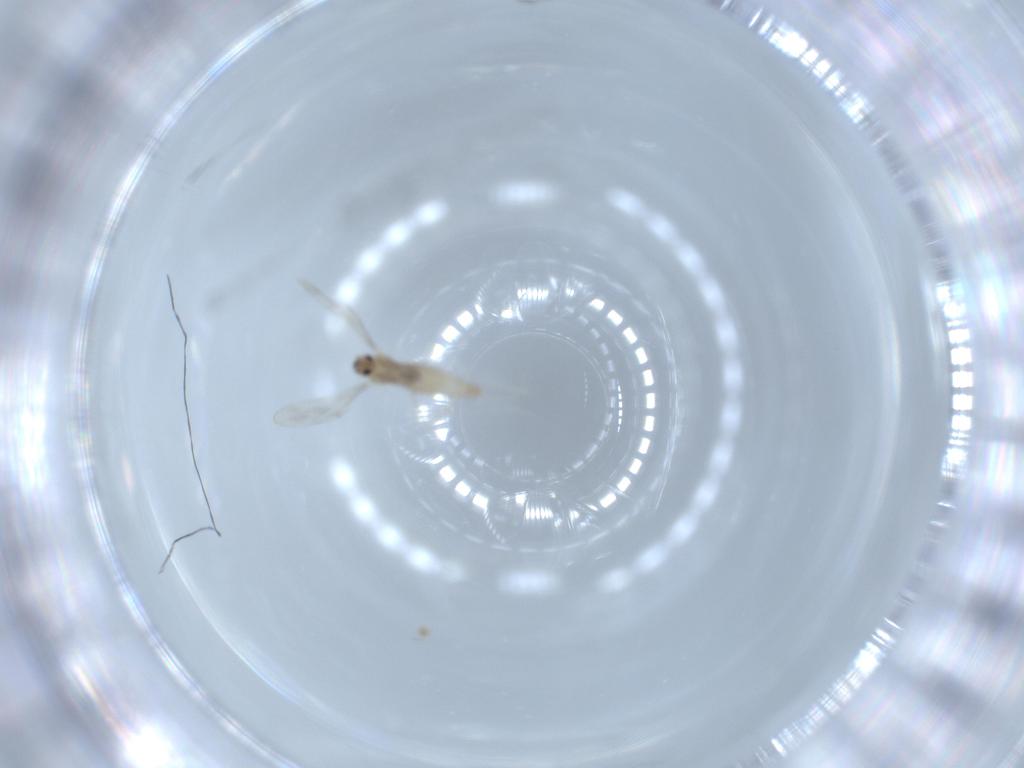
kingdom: Animalia
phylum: Arthropoda
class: Insecta
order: Diptera
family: Cecidomyiidae
